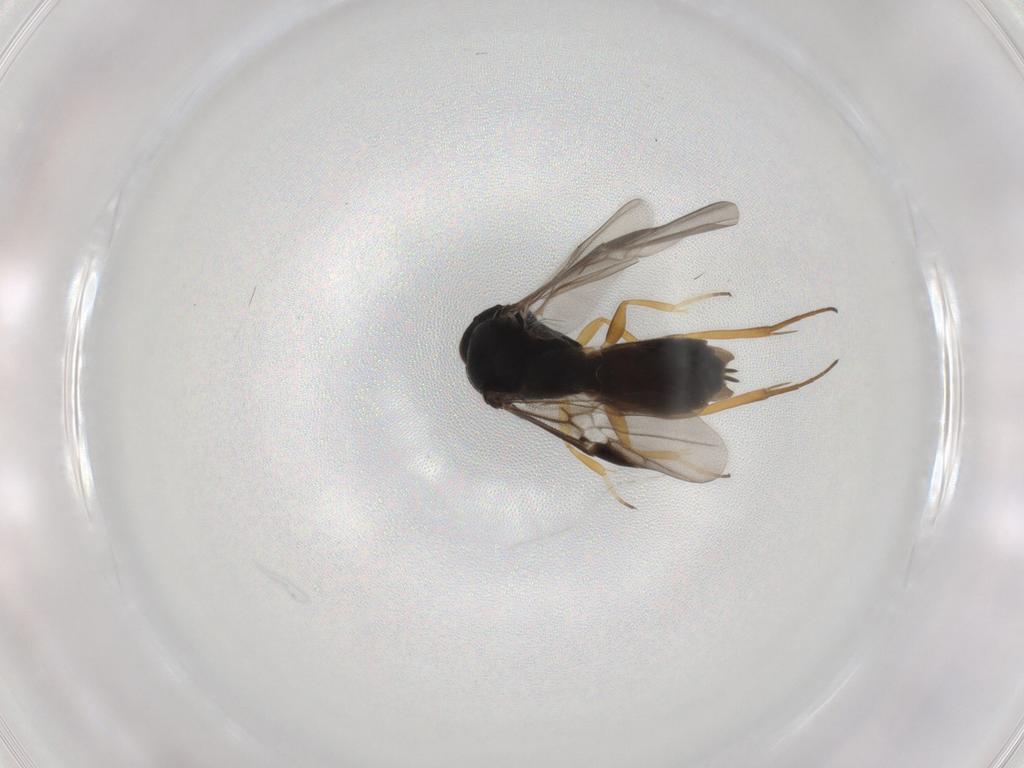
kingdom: Animalia
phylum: Arthropoda
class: Insecta
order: Hymenoptera
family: Braconidae
